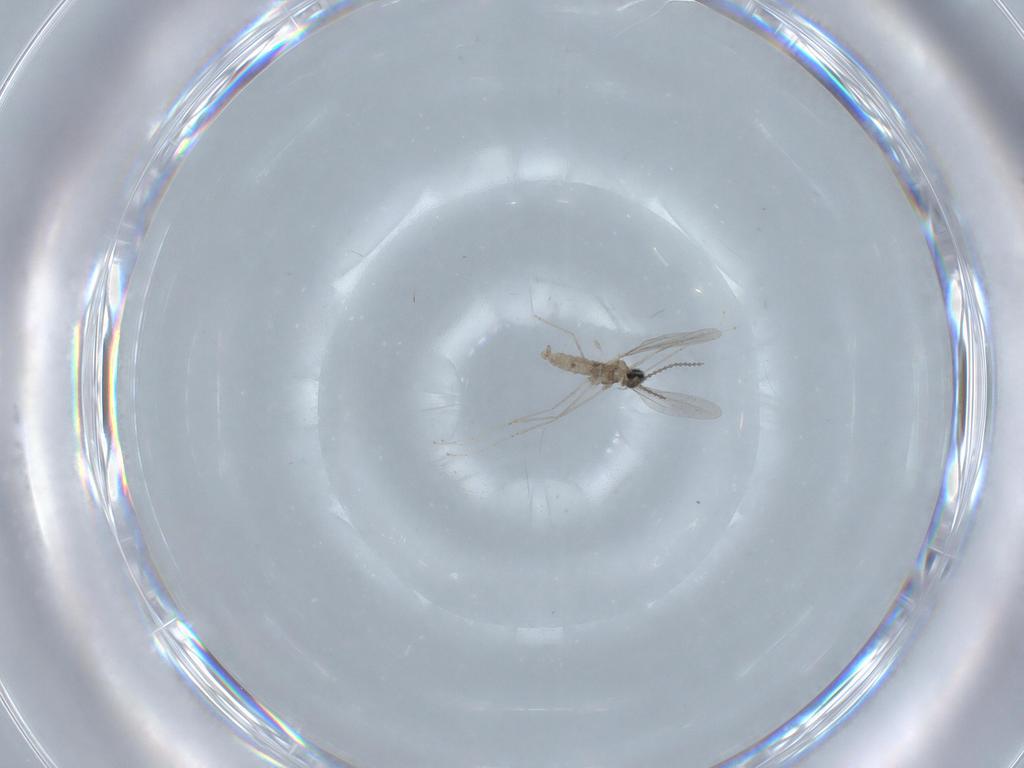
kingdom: Animalia
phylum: Arthropoda
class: Insecta
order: Diptera
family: Cecidomyiidae
